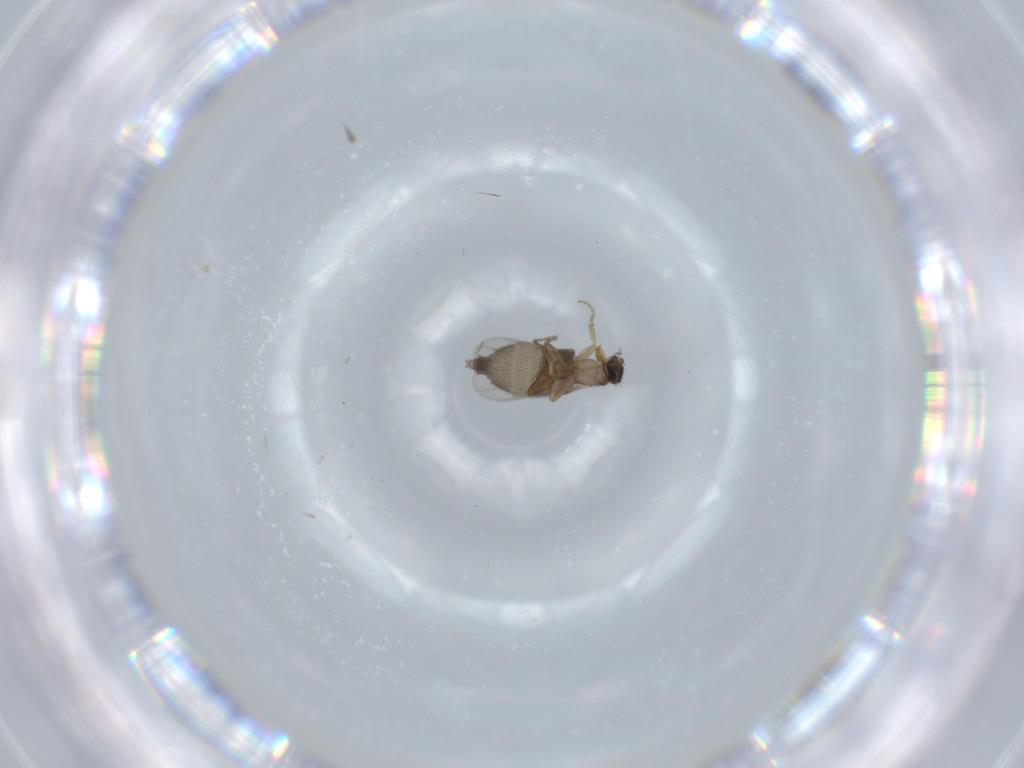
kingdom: Animalia
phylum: Arthropoda
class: Insecta
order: Diptera
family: Phoridae
